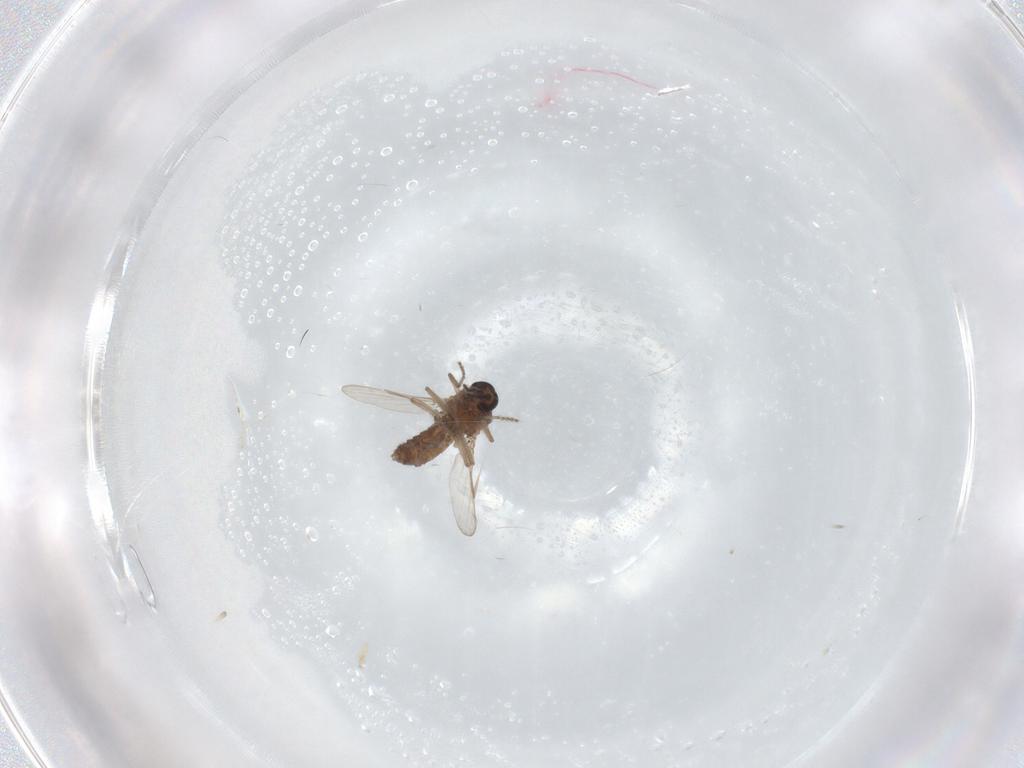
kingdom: Animalia
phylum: Arthropoda
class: Insecta
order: Diptera
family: Ceratopogonidae
